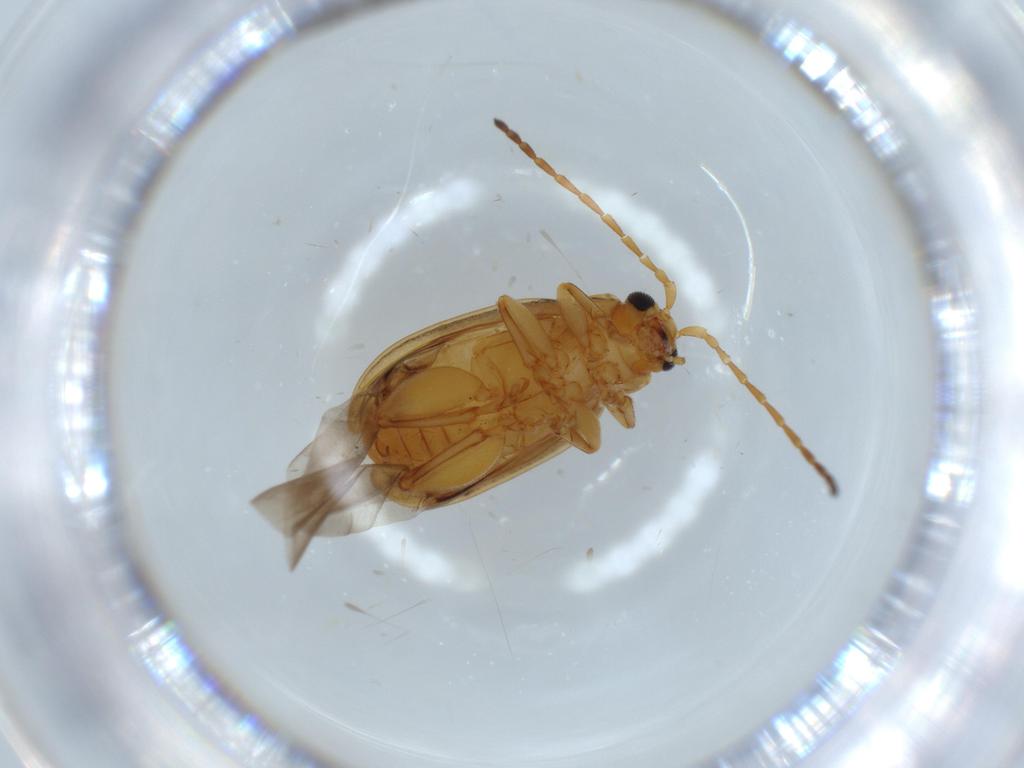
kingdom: Animalia
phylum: Arthropoda
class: Insecta
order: Coleoptera
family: Chrysomelidae
